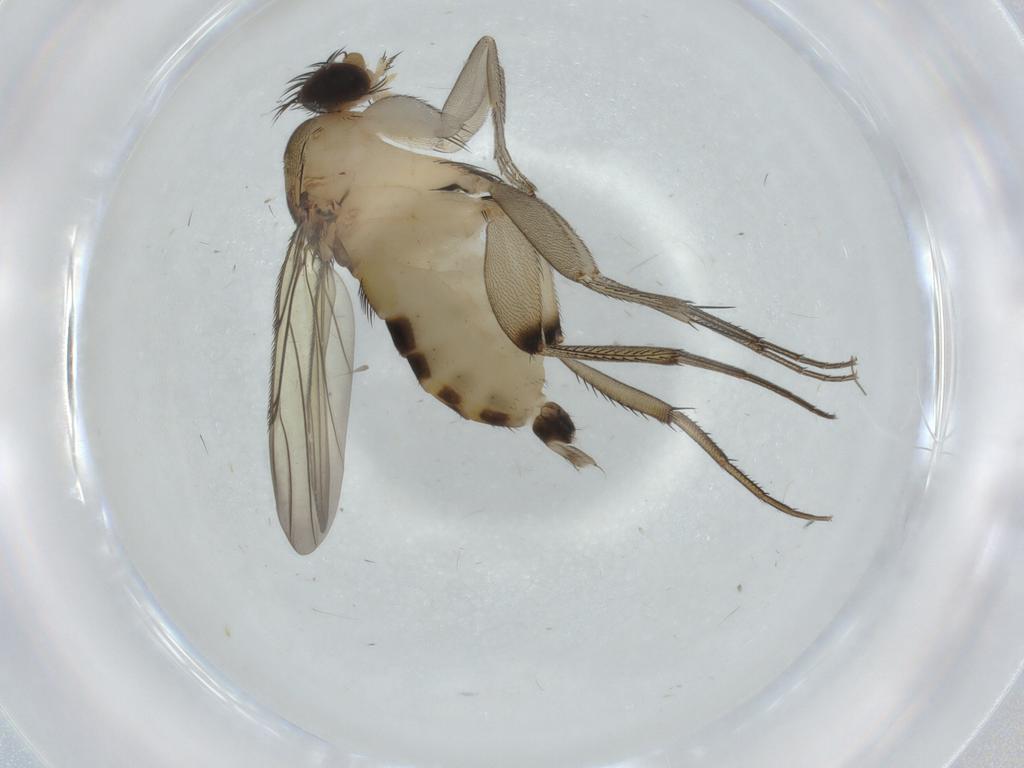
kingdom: Animalia
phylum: Arthropoda
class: Insecta
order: Diptera
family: Phoridae
